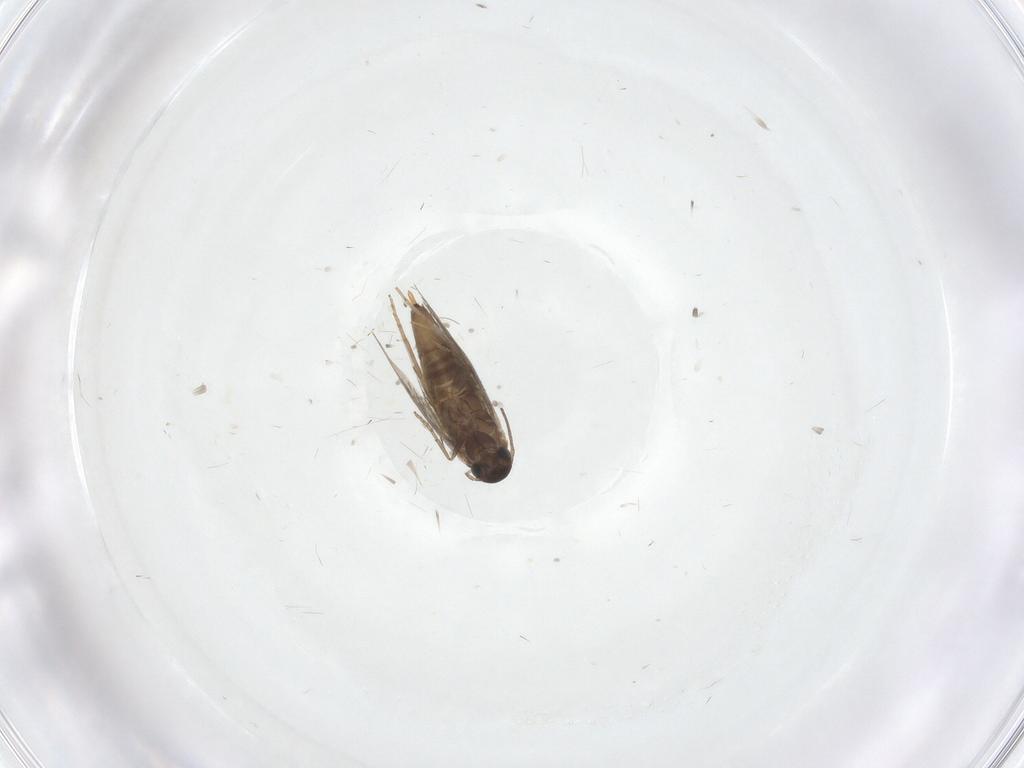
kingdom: Animalia
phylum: Arthropoda
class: Insecta
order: Lepidoptera
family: Heliozelidae
